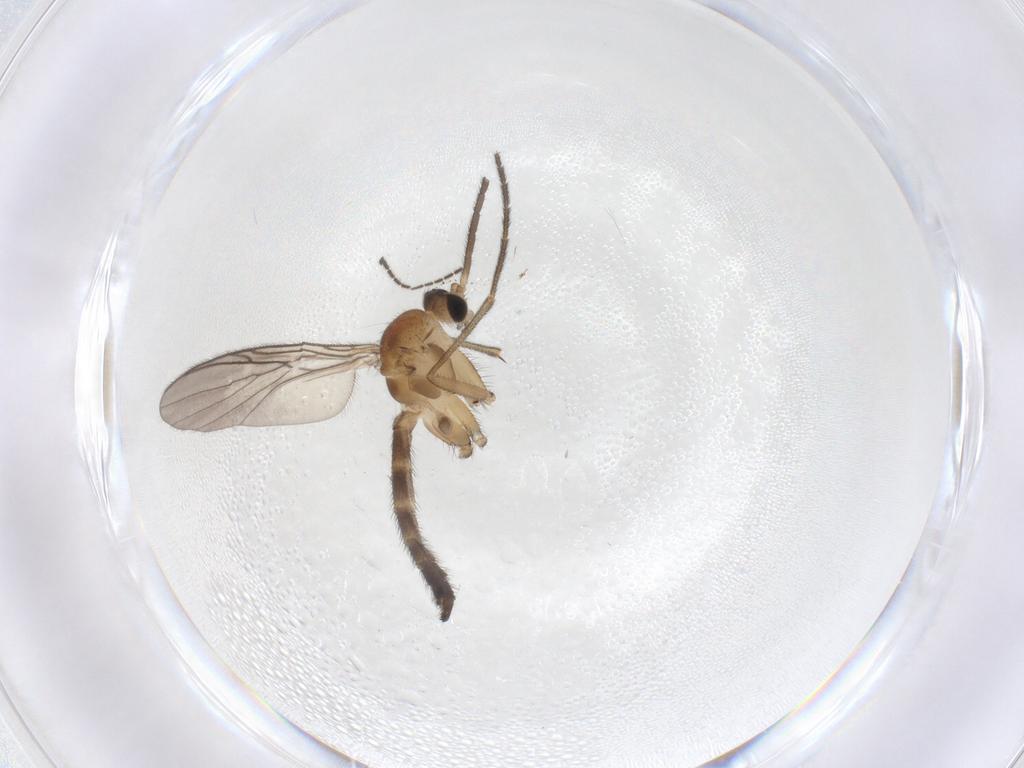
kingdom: Animalia
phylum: Arthropoda
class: Insecta
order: Diptera
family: Keroplatidae
